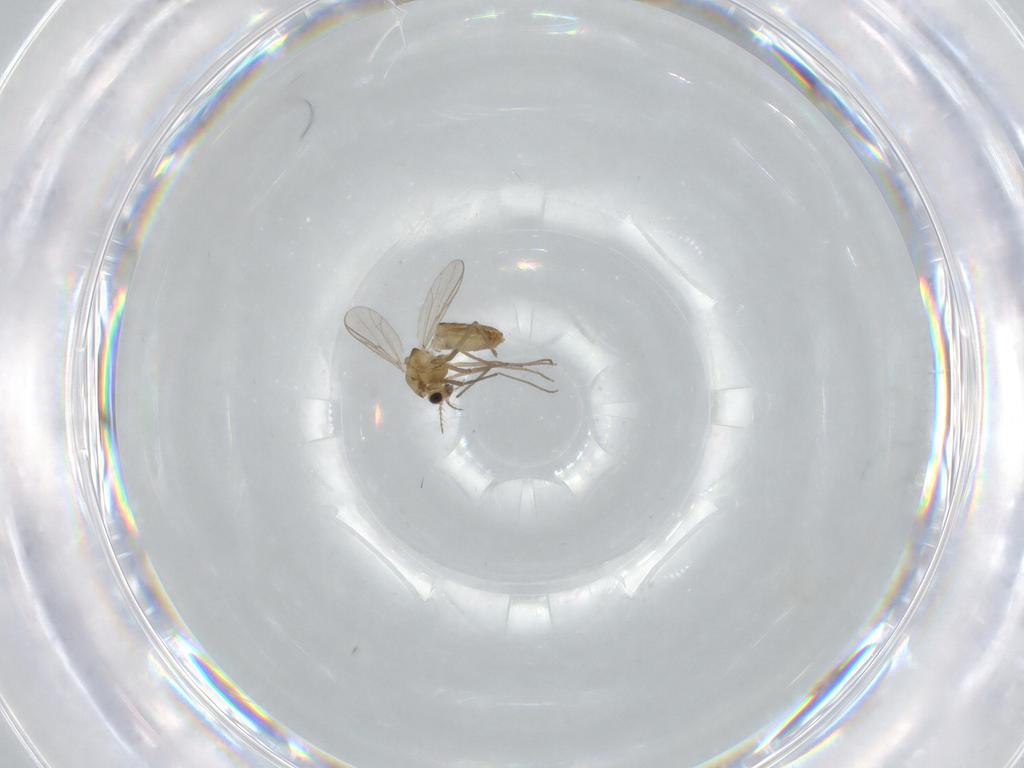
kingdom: Animalia
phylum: Arthropoda
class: Insecta
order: Diptera
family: Chironomidae
